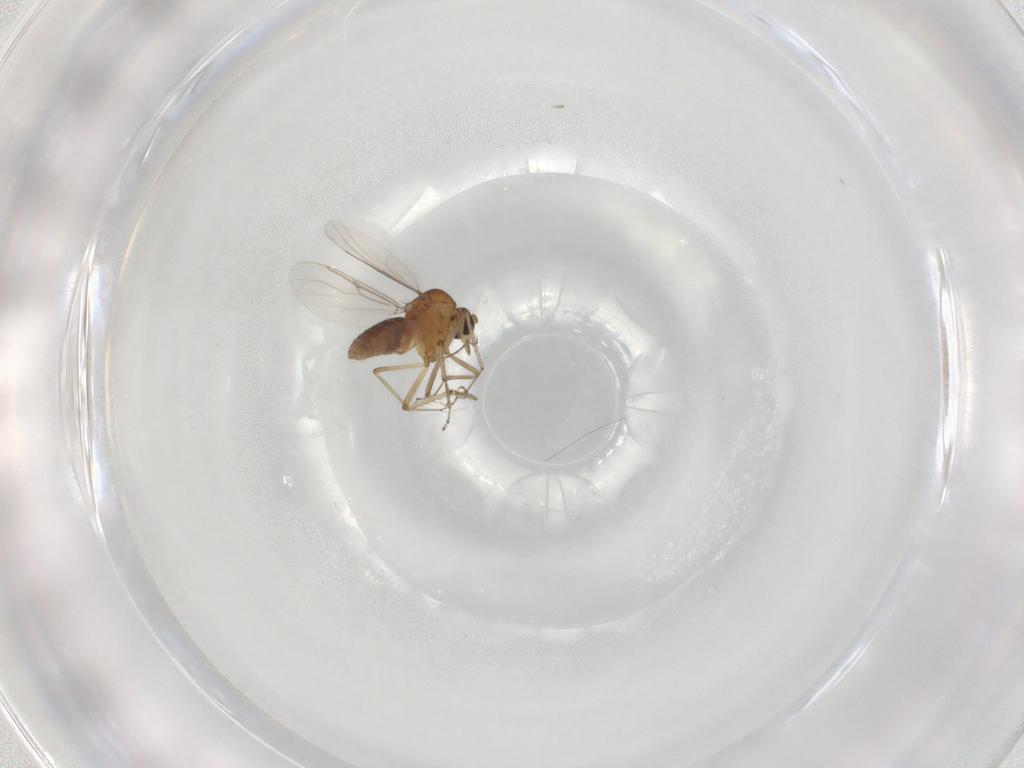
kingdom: Animalia
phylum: Arthropoda
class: Insecta
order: Diptera
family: Ceratopogonidae
